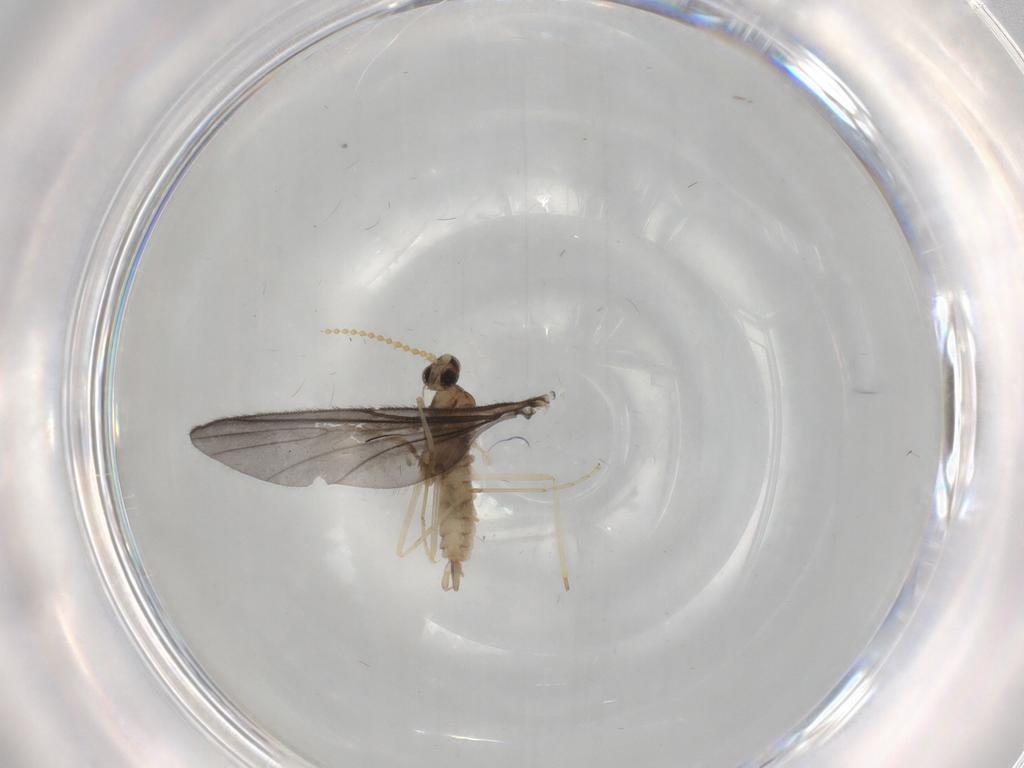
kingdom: Animalia
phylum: Arthropoda
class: Insecta
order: Diptera
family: Cecidomyiidae
